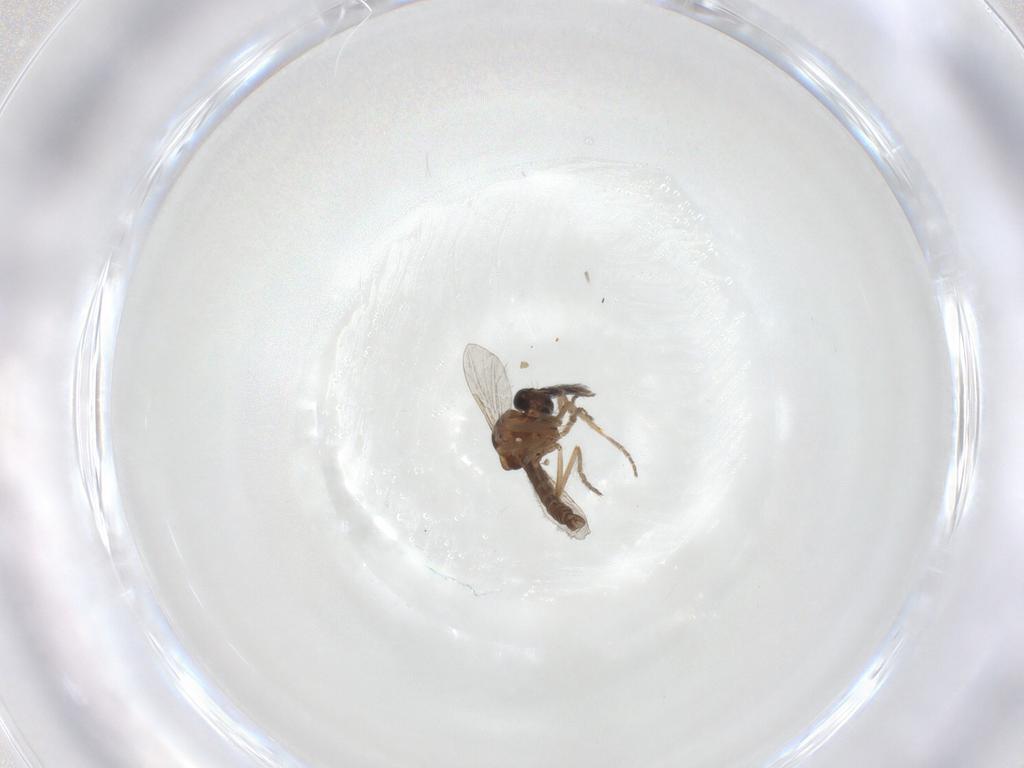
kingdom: Animalia
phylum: Arthropoda
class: Insecta
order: Diptera
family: Ceratopogonidae
